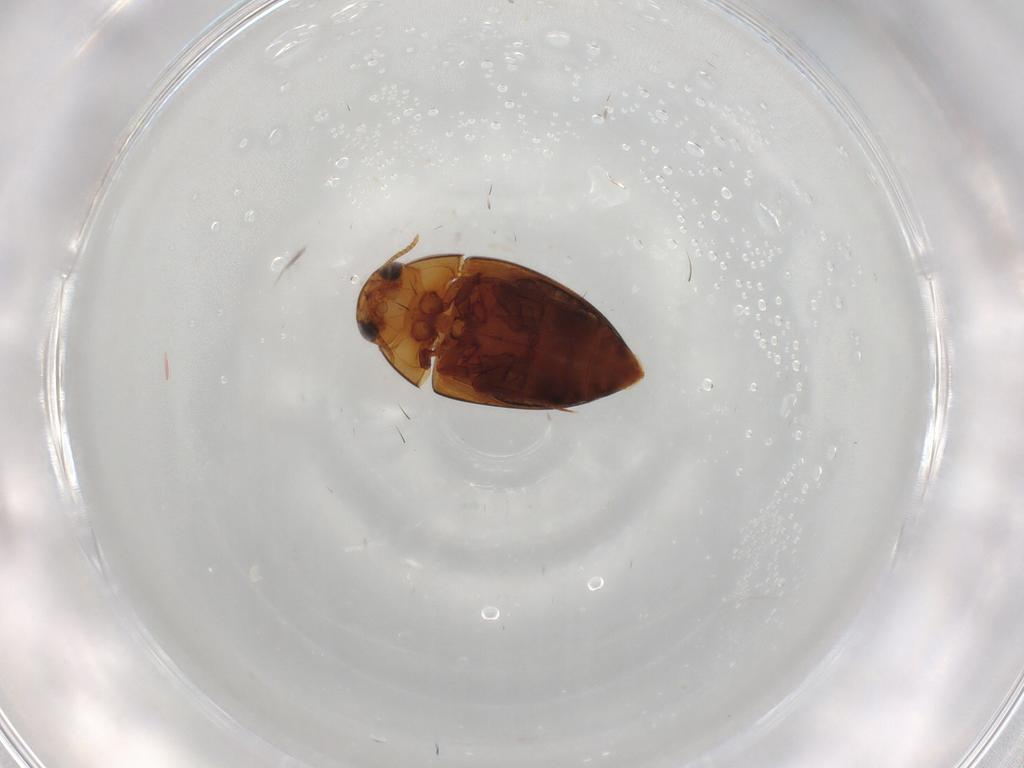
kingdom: Animalia
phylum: Arthropoda
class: Insecta
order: Coleoptera
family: Noteridae
